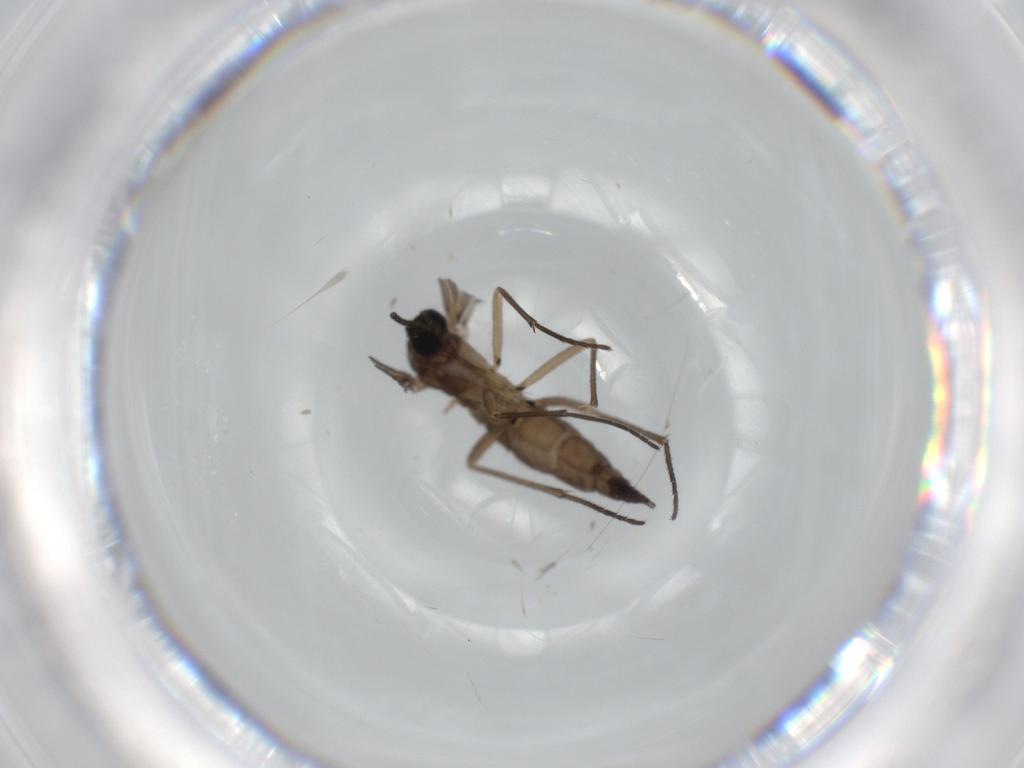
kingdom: Animalia
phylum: Arthropoda
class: Insecta
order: Diptera
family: Sciaridae
